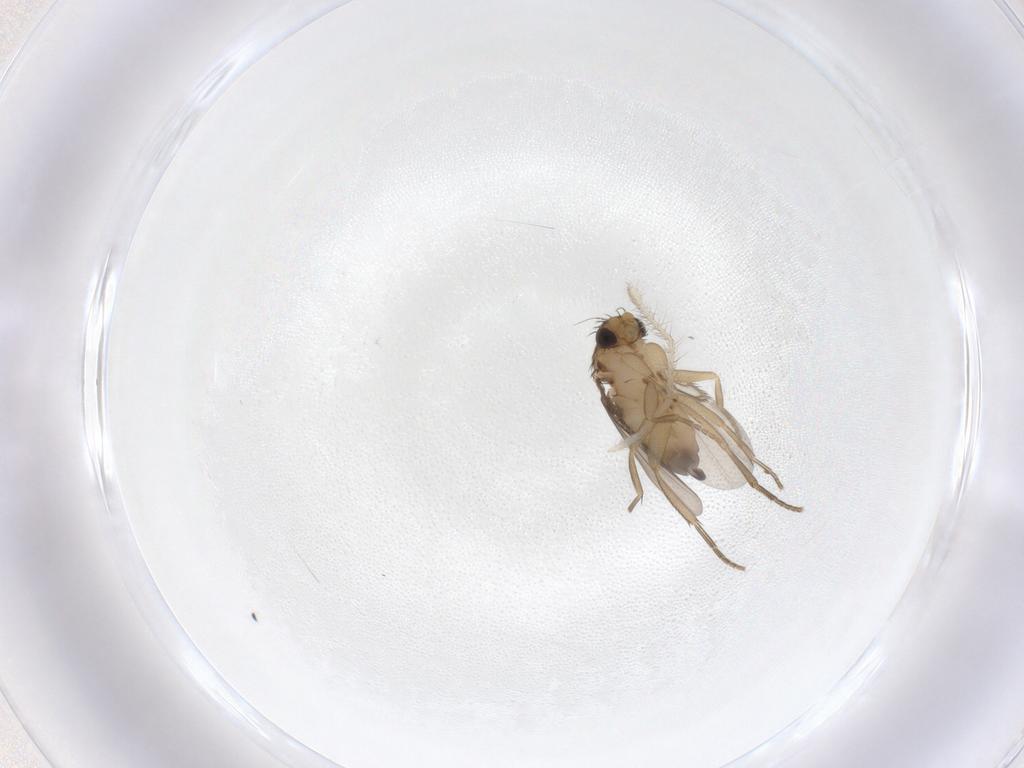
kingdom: Animalia
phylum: Arthropoda
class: Insecta
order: Diptera
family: Sciaridae
